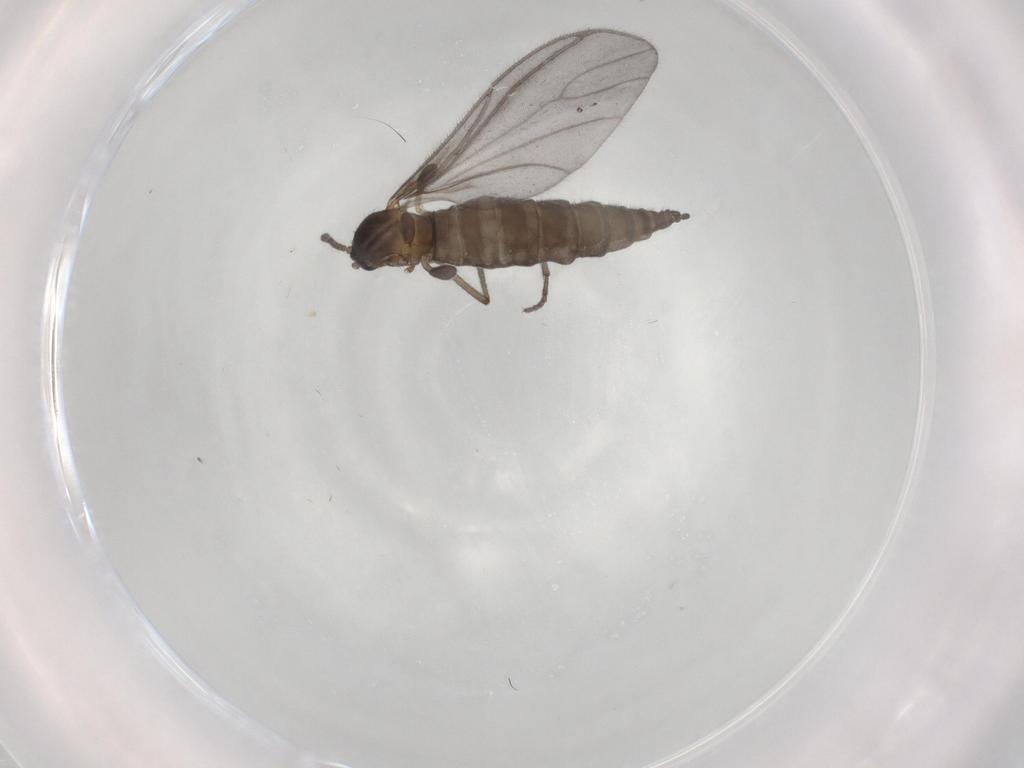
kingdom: Animalia
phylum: Arthropoda
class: Insecta
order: Diptera
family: Sciaridae
